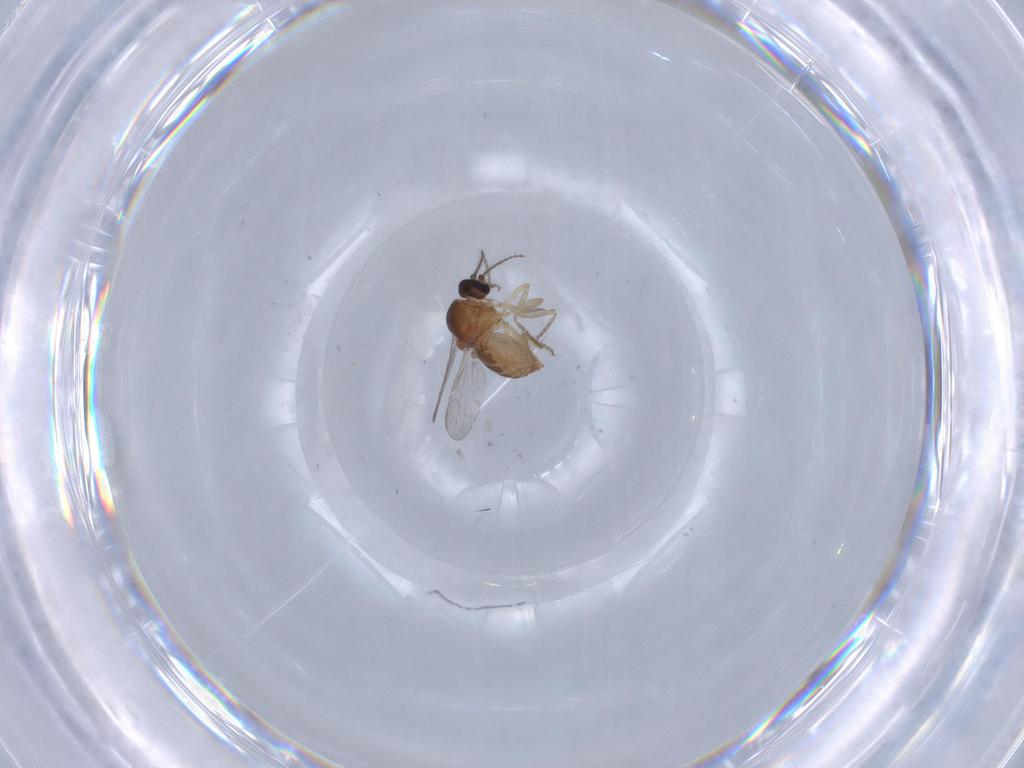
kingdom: Animalia
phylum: Arthropoda
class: Insecta
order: Diptera
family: Ceratopogonidae
